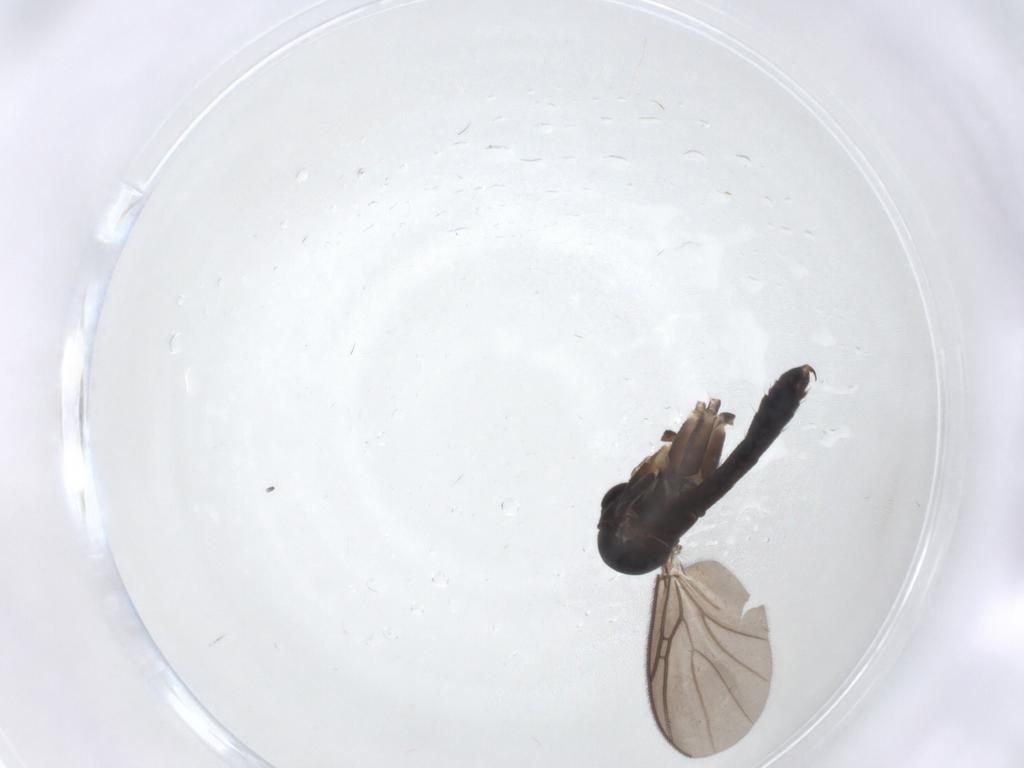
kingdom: Animalia
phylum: Arthropoda
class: Insecta
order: Diptera
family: Mycetophilidae
